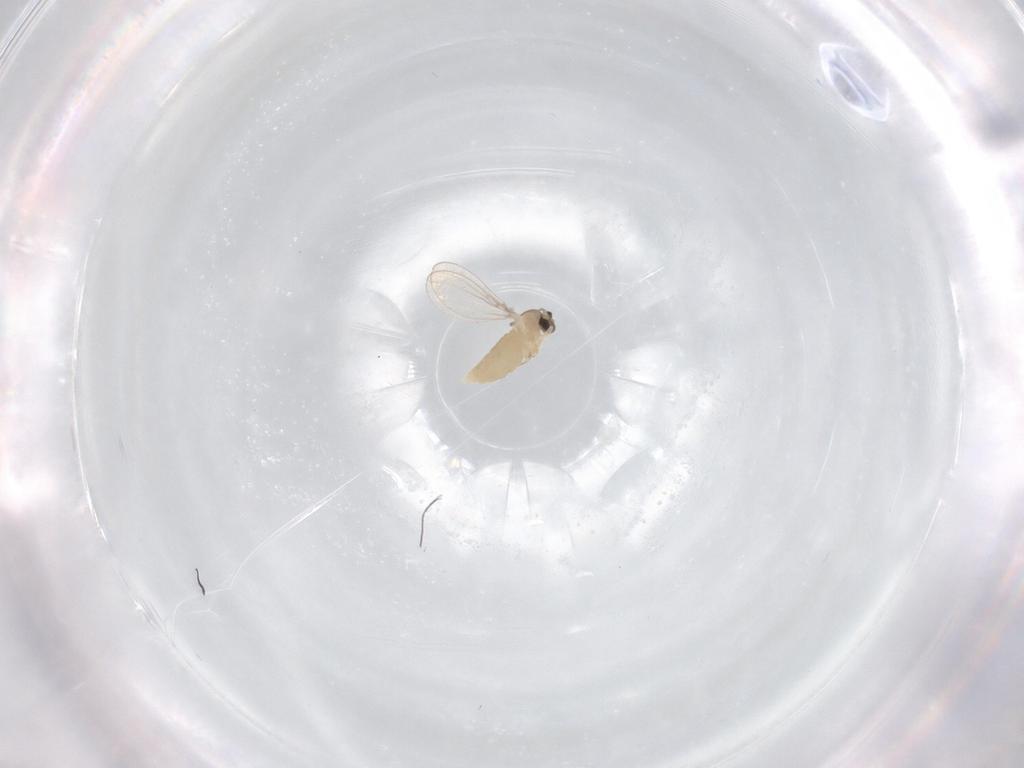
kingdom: Animalia
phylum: Arthropoda
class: Insecta
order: Diptera
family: Cecidomyiidae
